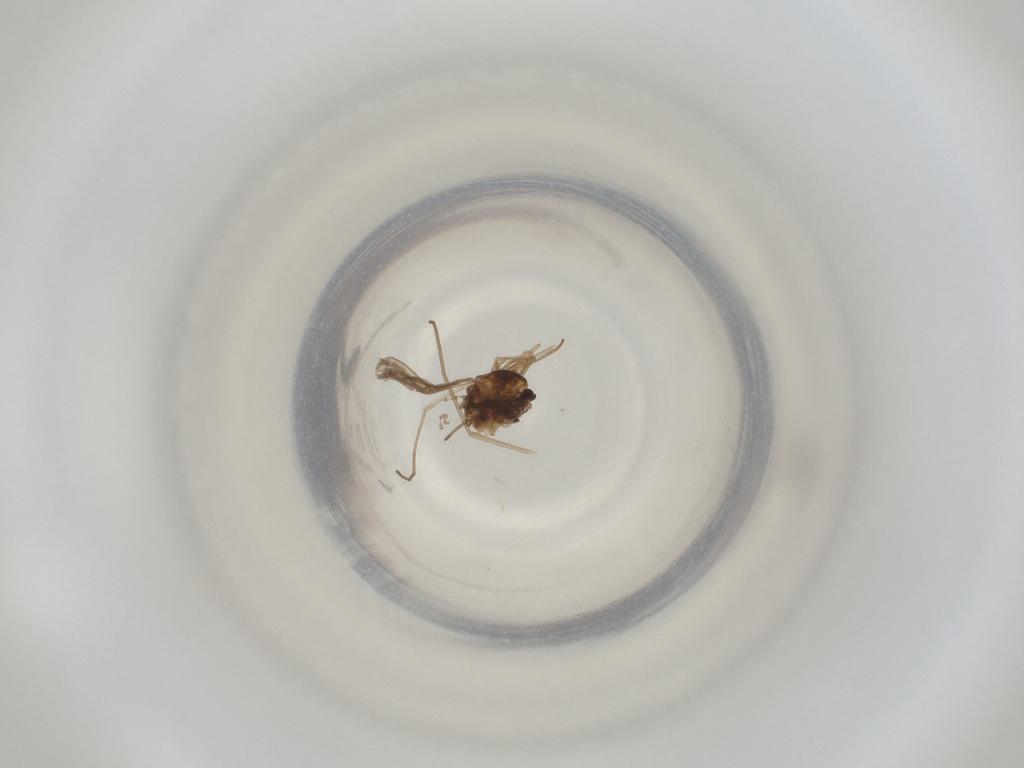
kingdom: Animalia
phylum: Arthropoda
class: Insecta
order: Diptera
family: Cecidomyiidae
